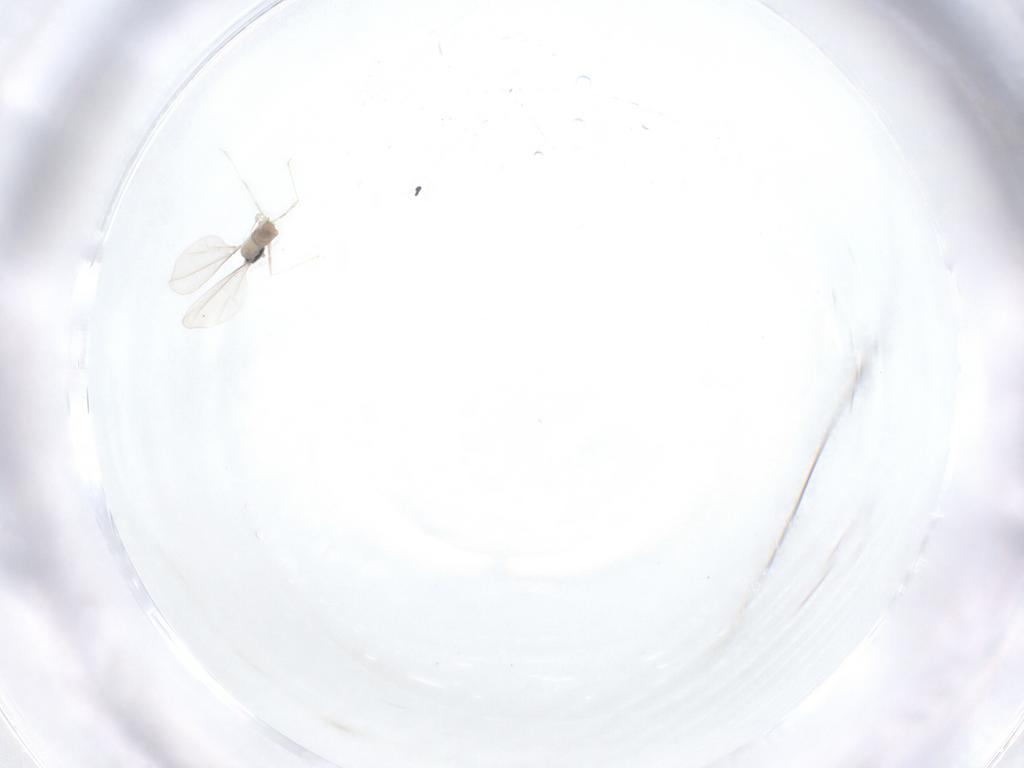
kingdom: Animalia
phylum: Arthropoda
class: Insecta
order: Diptera
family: Cecidomyiidae
